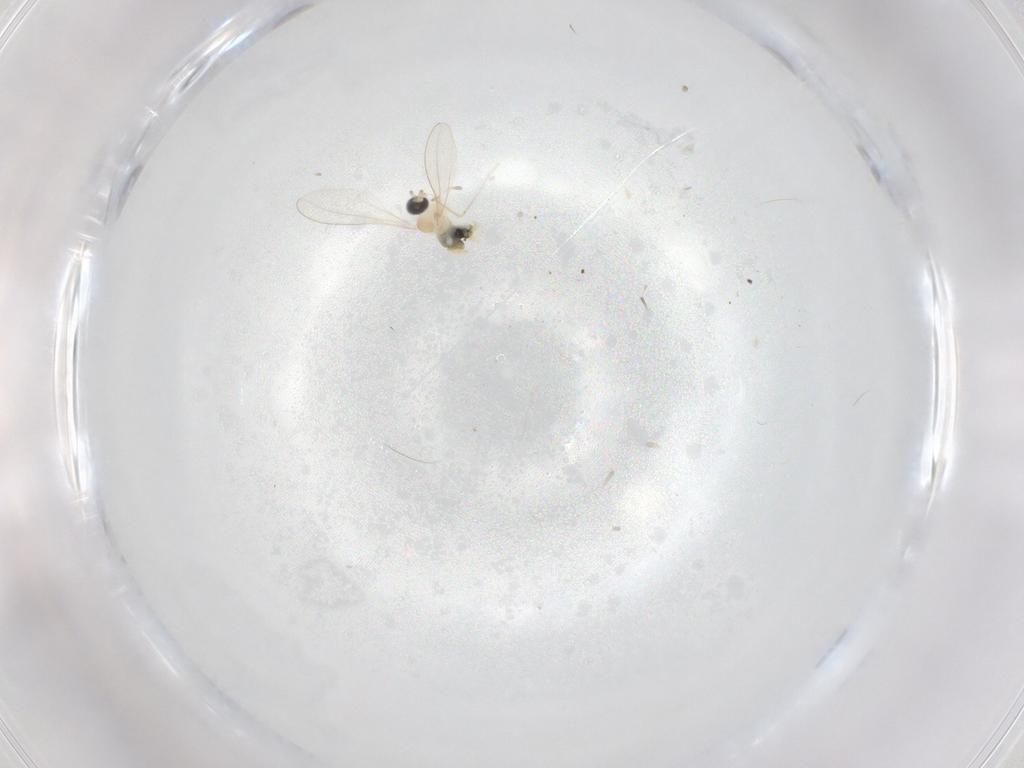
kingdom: Animalia
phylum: Arthropoda
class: Insecta
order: Diptera
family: Cecidomyiidae
